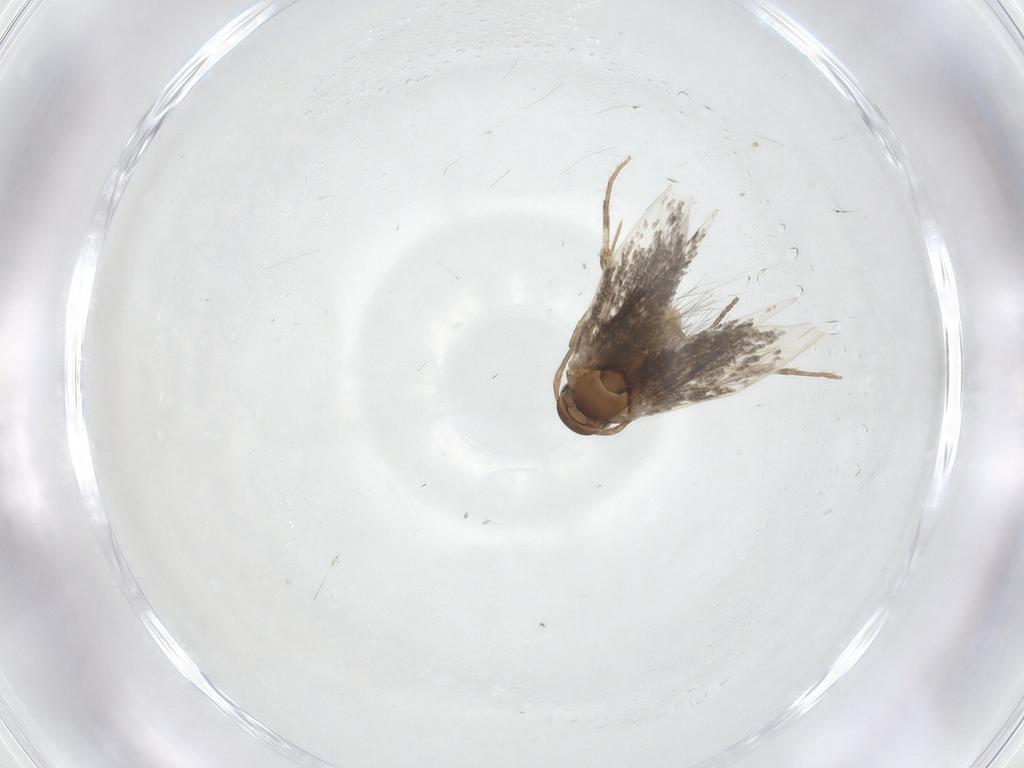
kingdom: Animalia
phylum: Arthropoda
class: Insecta
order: Lepidoptera
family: Elachistidae
